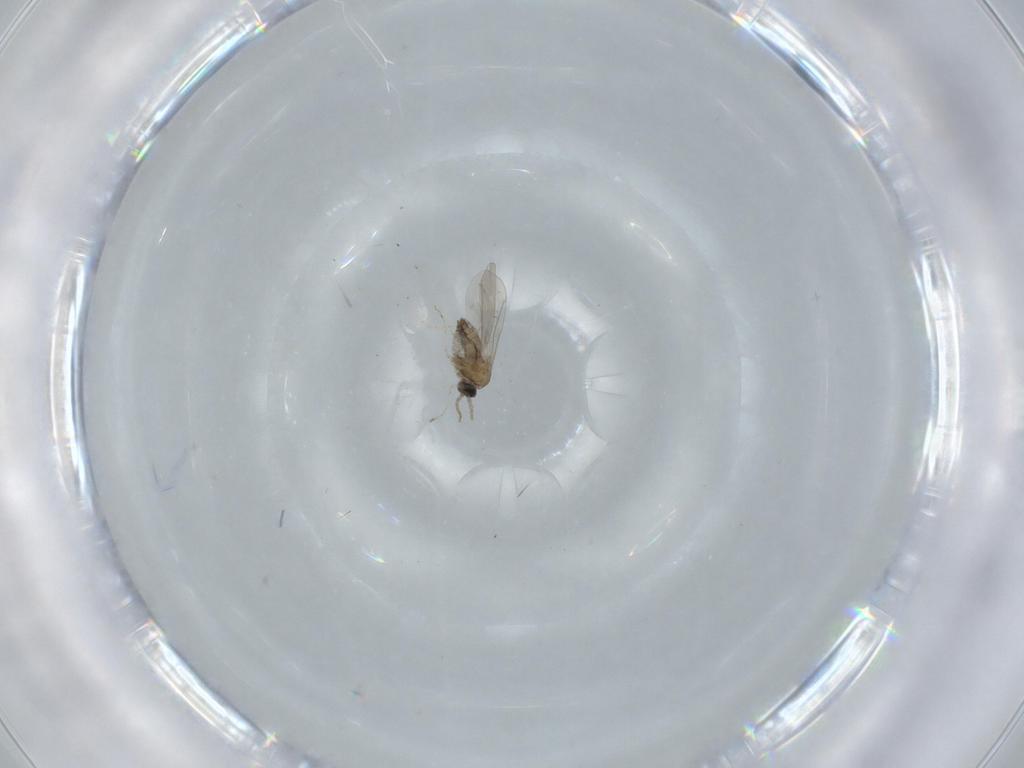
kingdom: Animalia
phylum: Arthropoda
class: Insecta
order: Diptera
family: Cecidomyiidae
